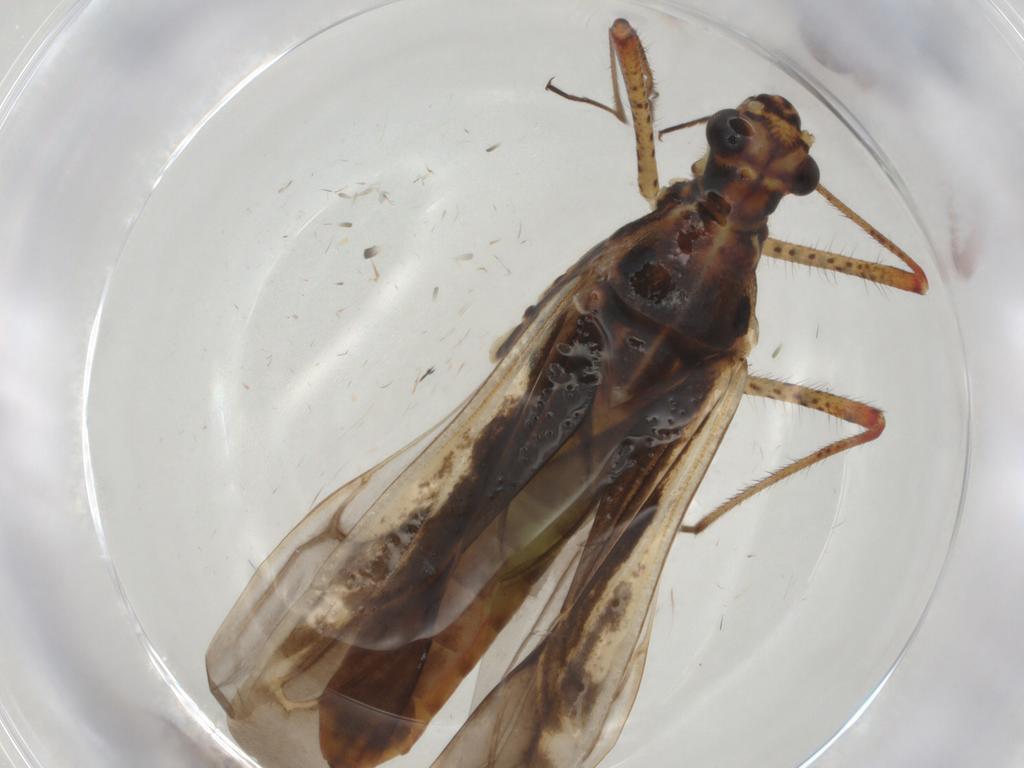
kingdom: Animalia
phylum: Arthropoda
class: Insecta
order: Hemiptera
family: Miridae
